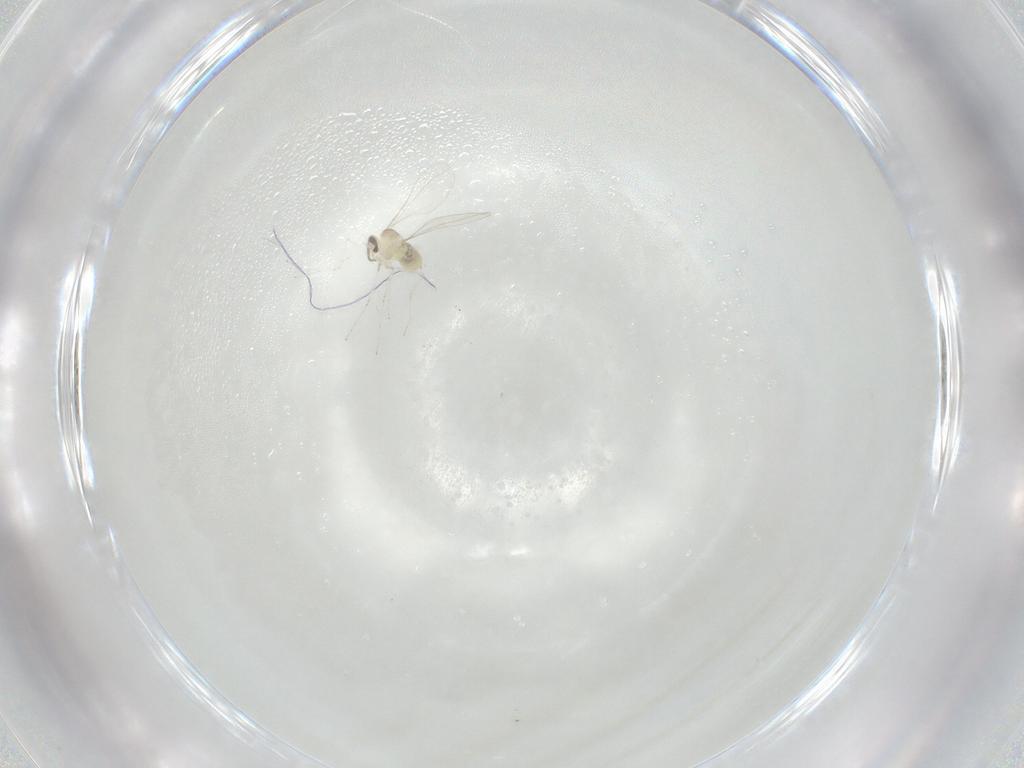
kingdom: Animalia
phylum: Arthropoda
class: Insecta
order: Diptera
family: Cecidomyiidae
